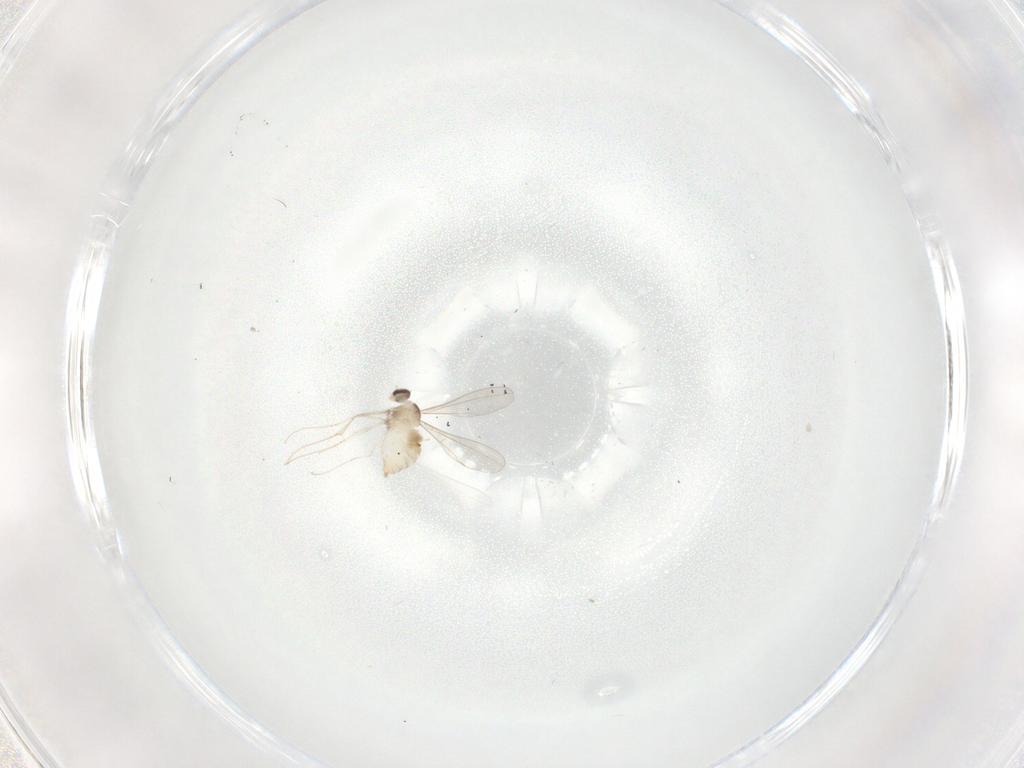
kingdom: Animalia
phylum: Arthropoda
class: Insecta
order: Diptera
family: Cecidomyiidae
